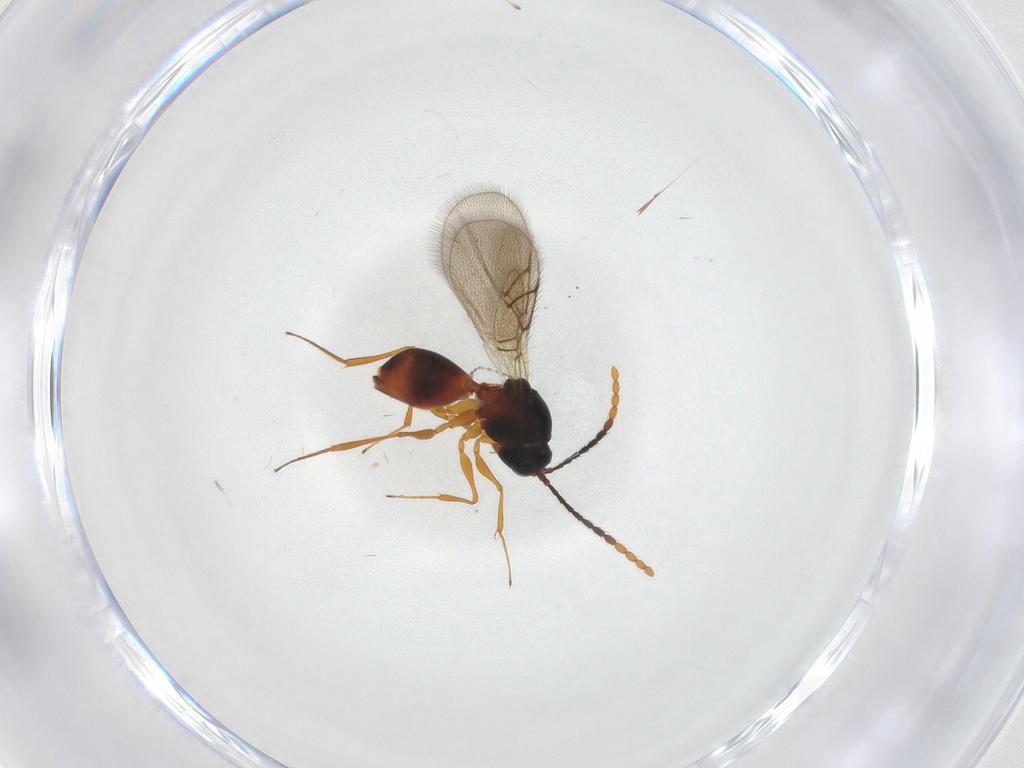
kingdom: Animalia
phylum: Arthropoda
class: Insecta
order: Hymenoptera
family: Figitidae
